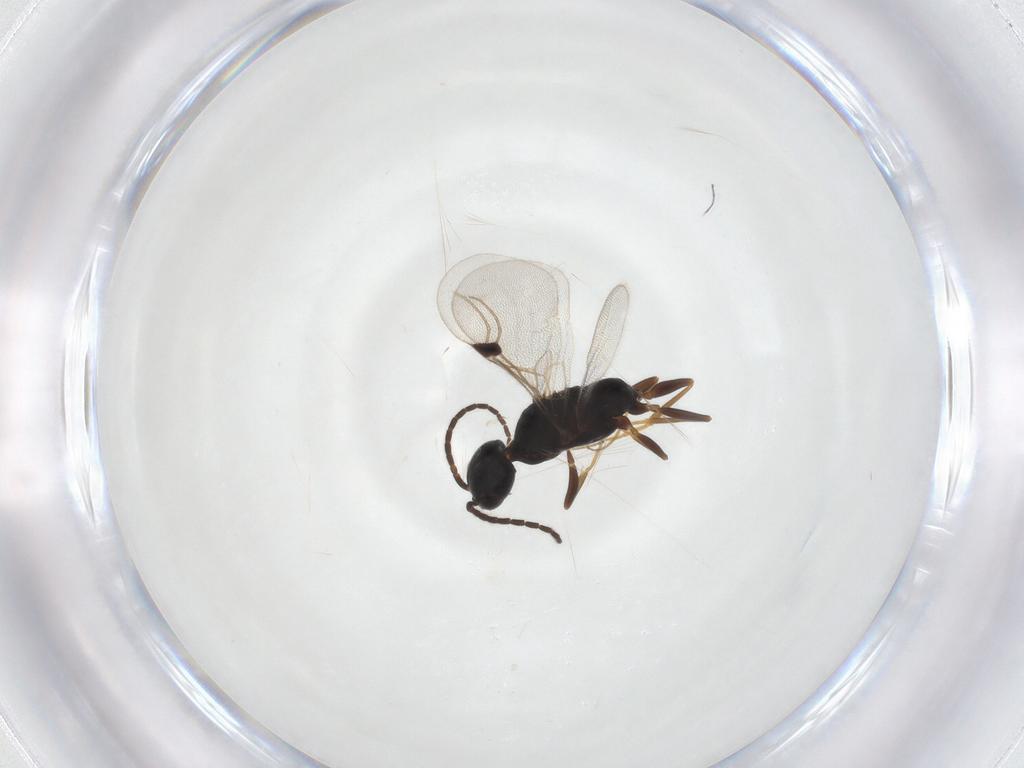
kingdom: Animalia
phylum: Arthropoda
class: Insecta
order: Hymenoptera
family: Bethylidae
